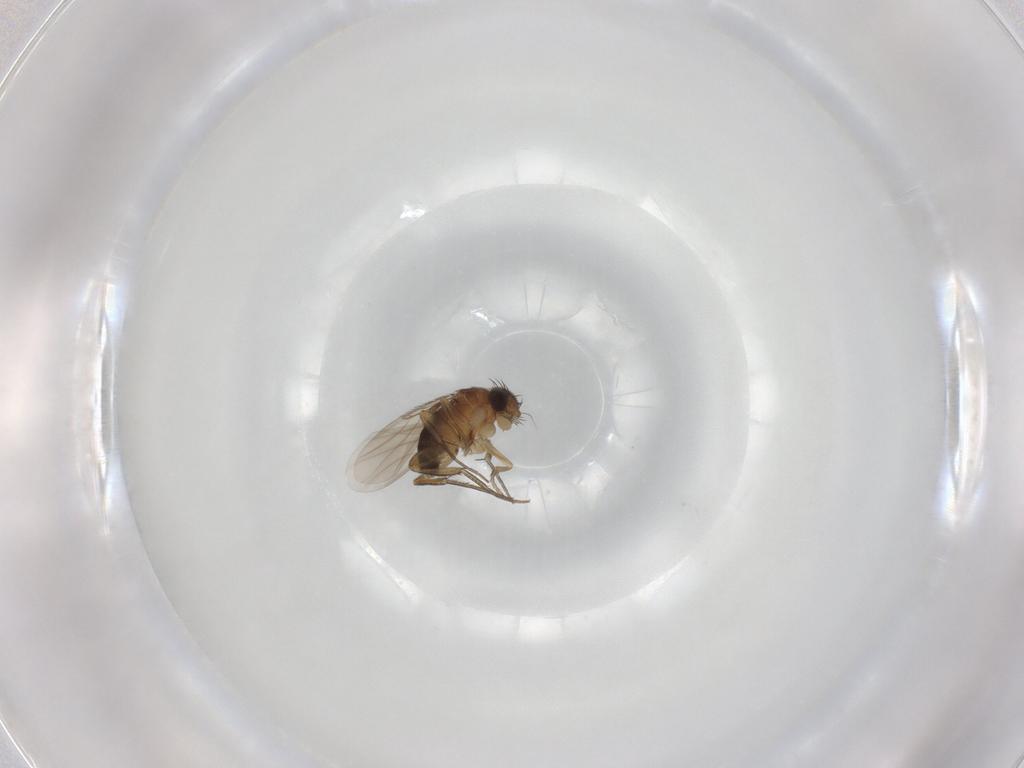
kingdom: Animalia
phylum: Arthropoda
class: Insecta
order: Diptera
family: Phoridae
